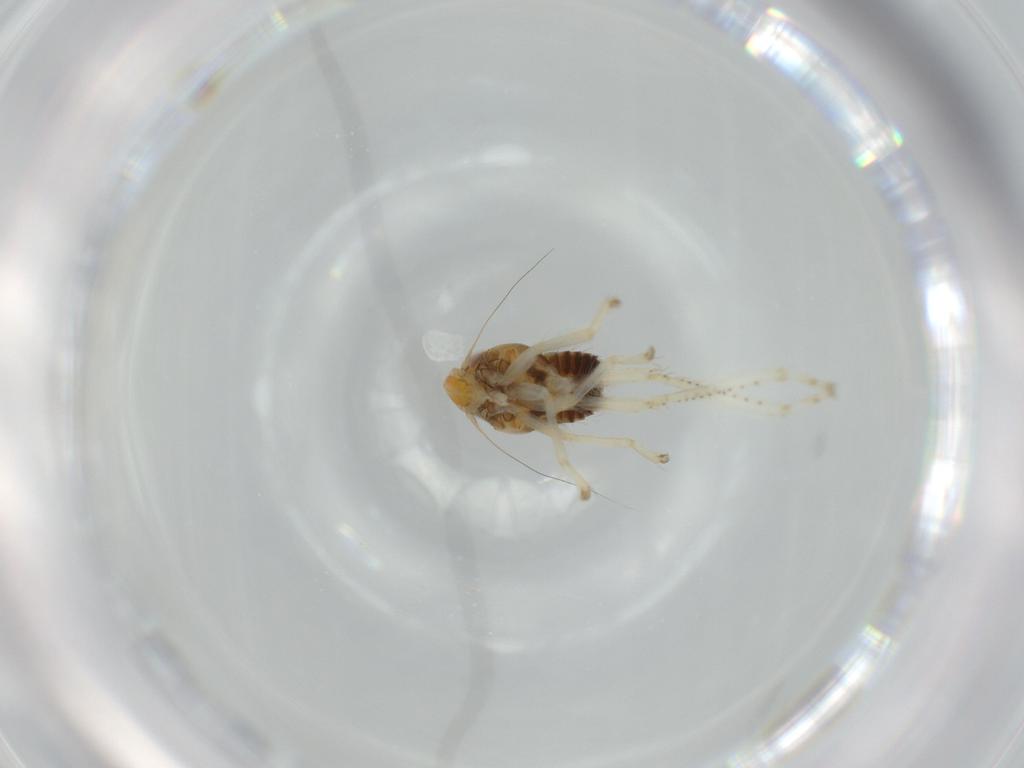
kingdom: Animalia
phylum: Arthropoda
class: Insecta
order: Hemiptera
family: Cicadellidae
